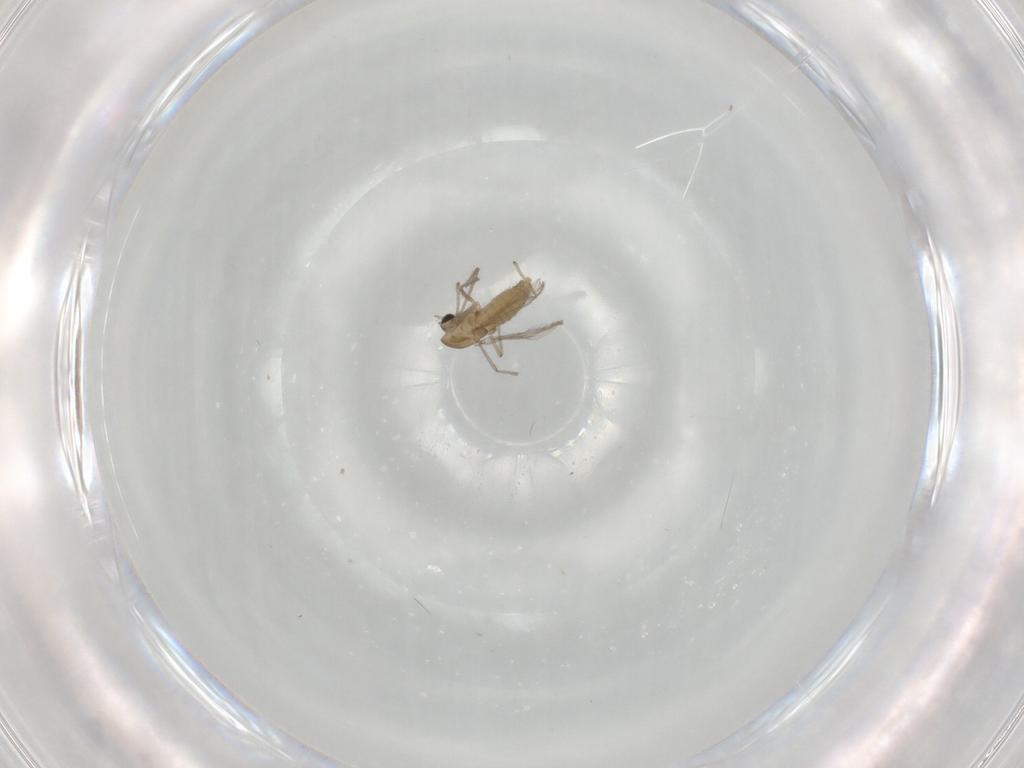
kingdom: Animalia
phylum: Arthropoda
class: Insecta
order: Diptera
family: Chironomidae
